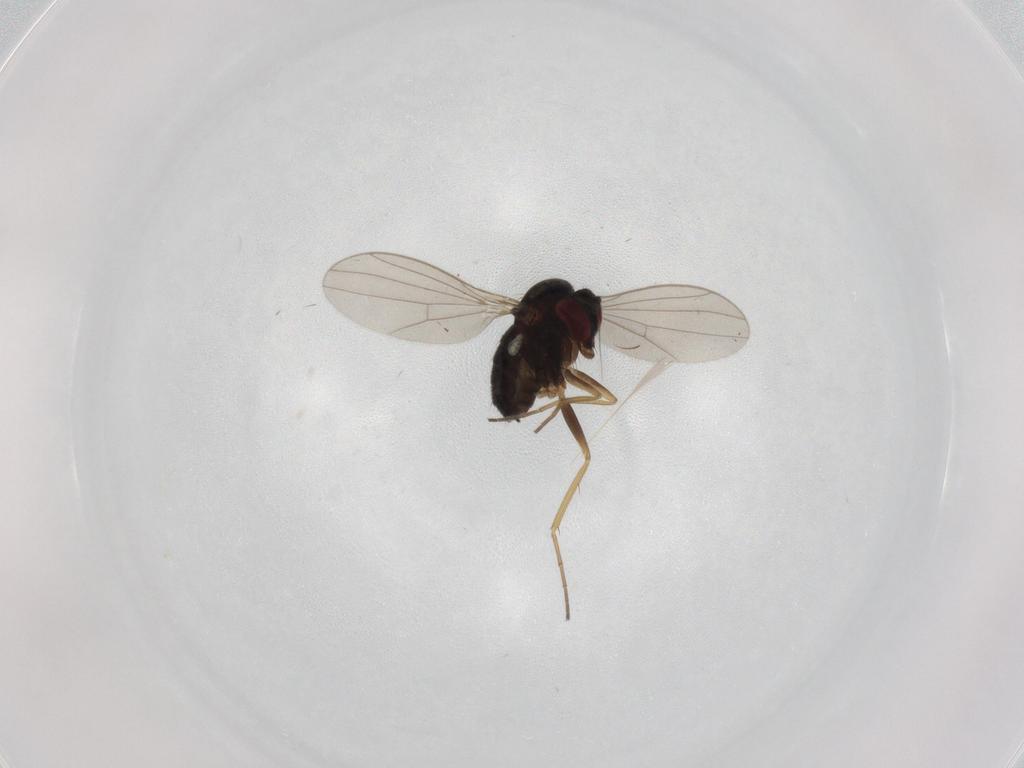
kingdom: Animalia
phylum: Arthropoda
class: Insecta
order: Diptera
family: Dolichopodidae
